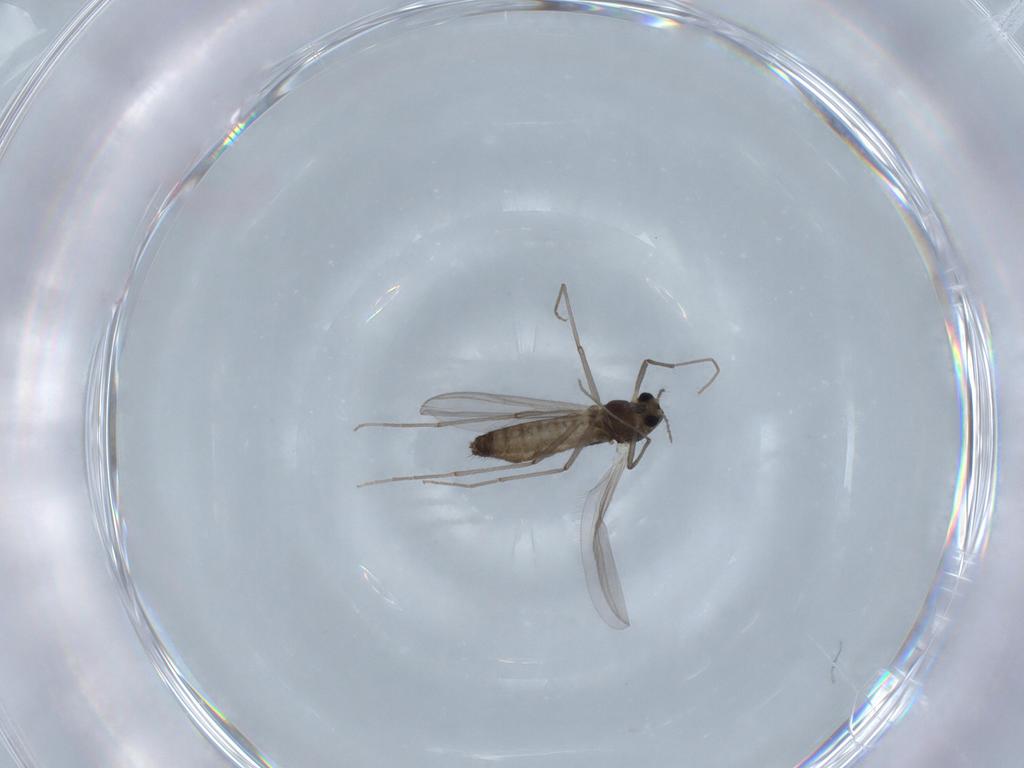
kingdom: Animalia
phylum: Arthropoda
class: Insecta
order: Diptera
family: Chironomidae
